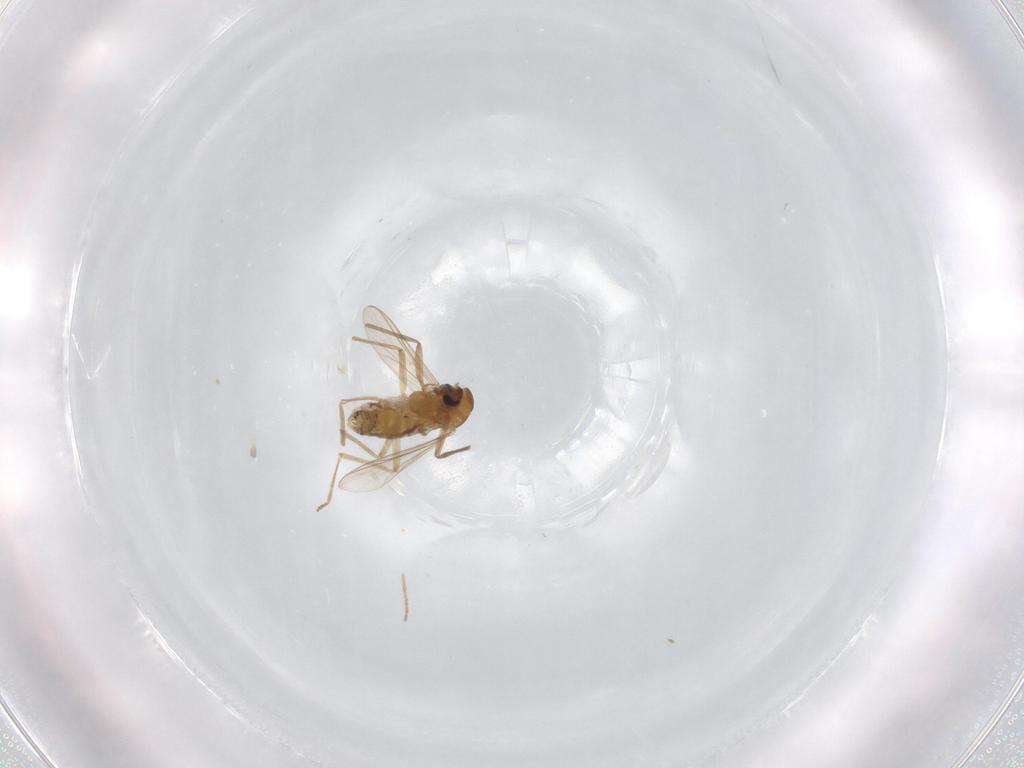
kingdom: Animalia
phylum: Arthropoda
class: Insecta
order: Diptera
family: Chironomidae
